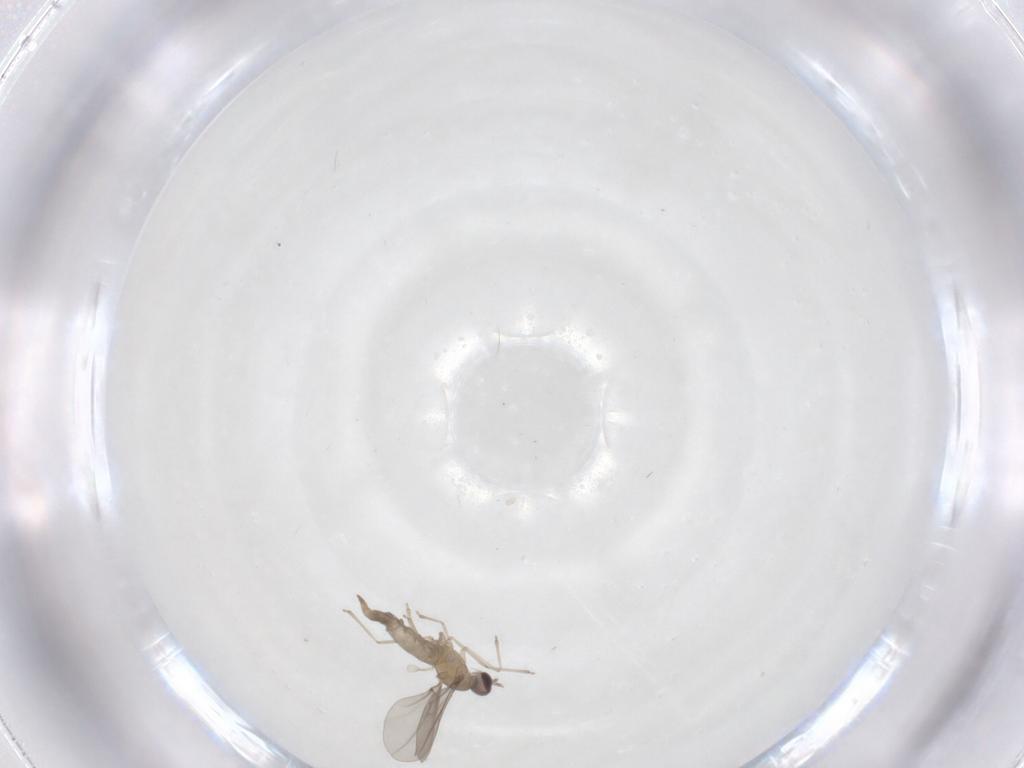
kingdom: Animalia
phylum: Arthropoda
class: Insecta
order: Diptera
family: Cecidomyiidae
